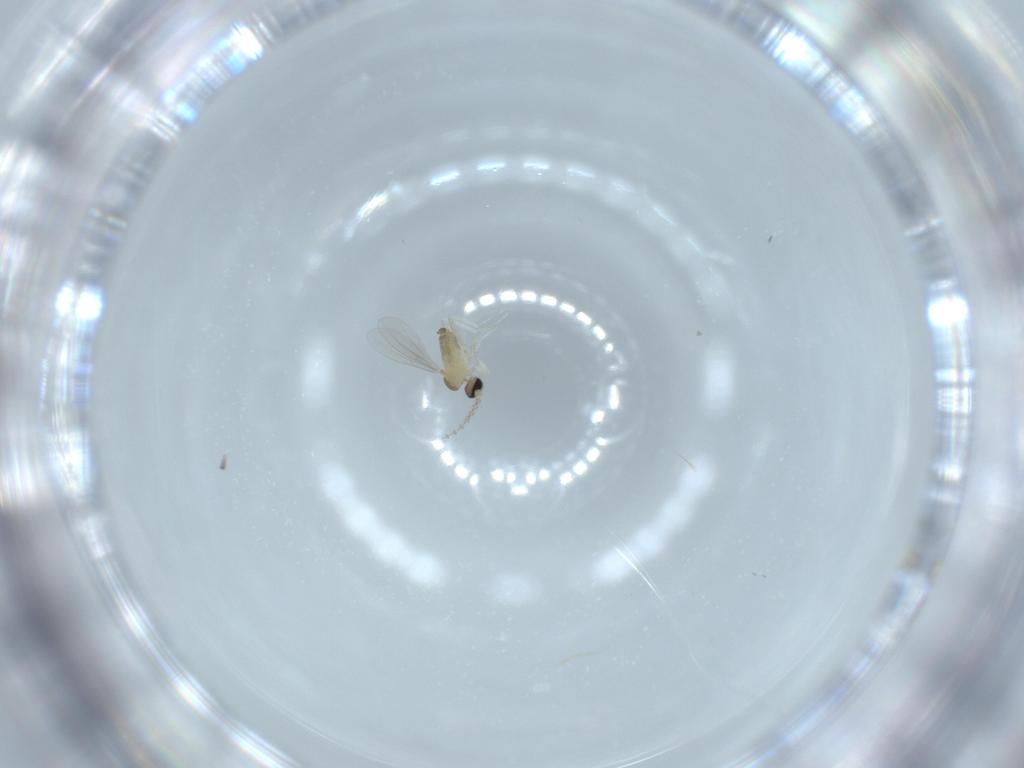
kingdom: Animalia
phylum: Arthropoda
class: Insecta
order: Diptera
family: Cecidomyiidae
